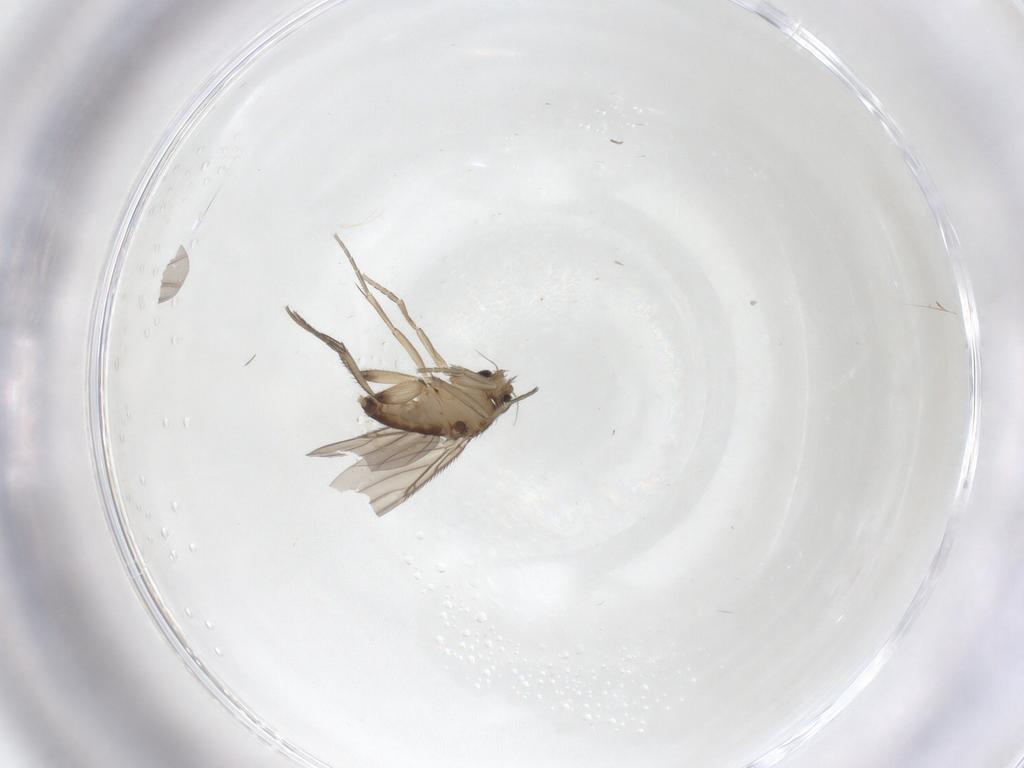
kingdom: Animalia
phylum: Arthropoda
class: Insecta
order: Diptera
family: Phoridae
